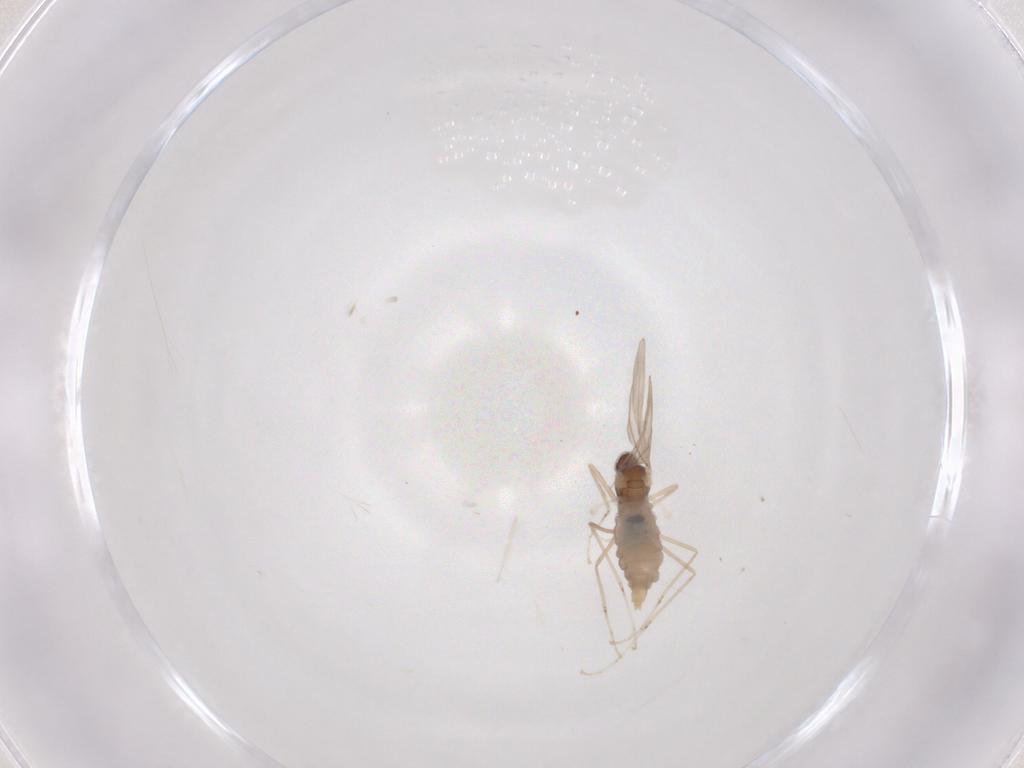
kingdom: Animalia
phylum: Arthropoda
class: Insecta
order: Diptera
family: Cecidomyiidae
